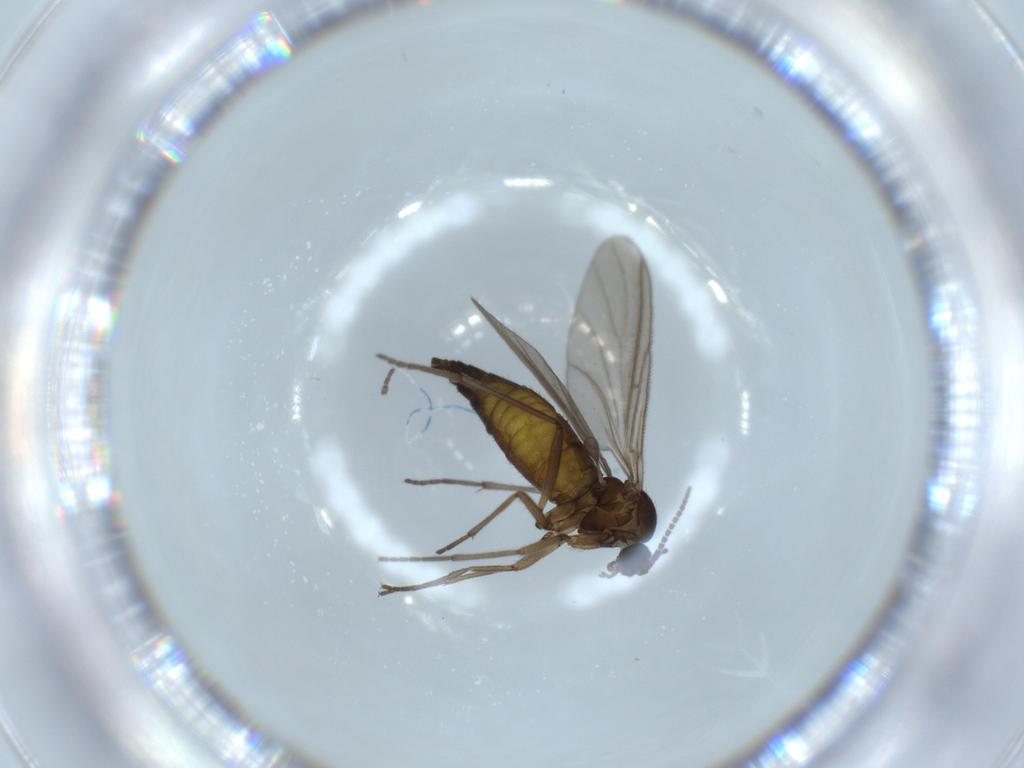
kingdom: Animalia
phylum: Arthropoda
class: Insecta
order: Diptera
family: Sciaridae
